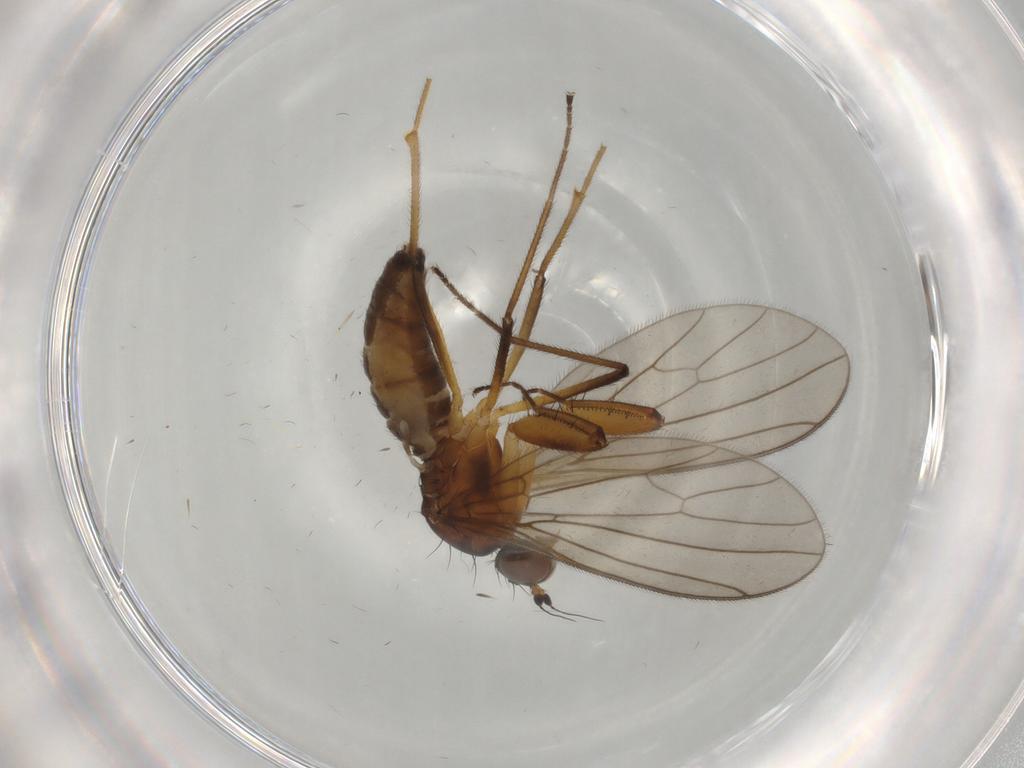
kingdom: Animalia
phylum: Arthropoda
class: Insecta
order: Diptera
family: Empididae
